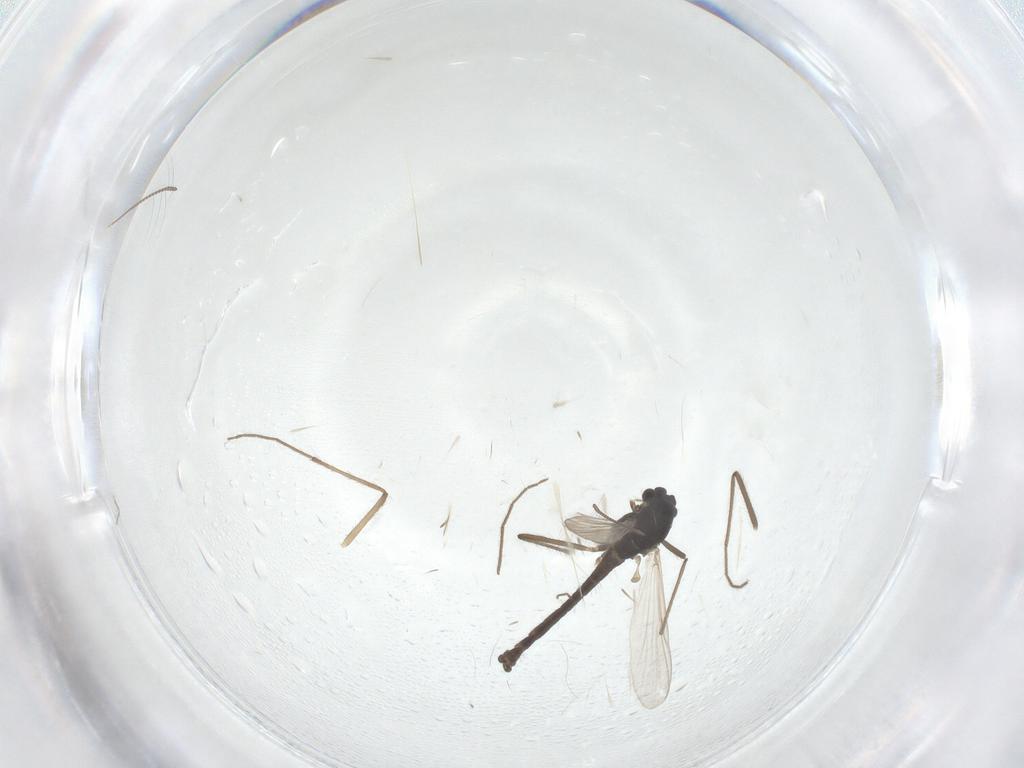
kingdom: Animalia
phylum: Arthropoda
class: Insecta
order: Diptera
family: Chironomidae
